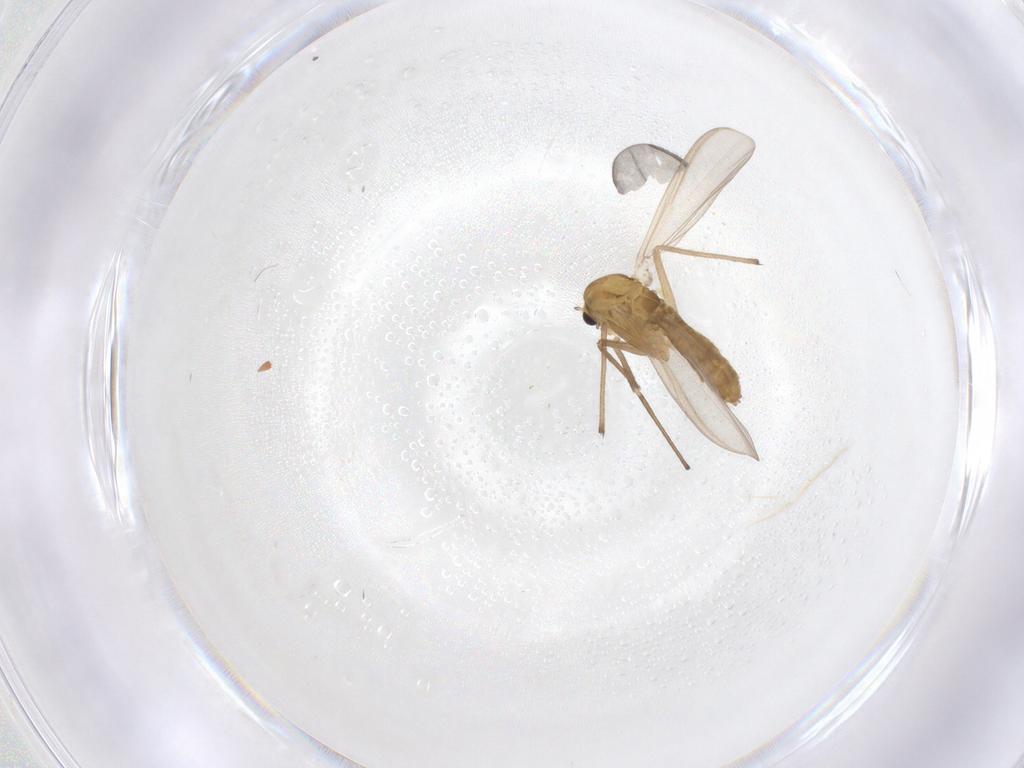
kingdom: Animalia
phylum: Arthropoda
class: Insecta
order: Diptera
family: Chironomidae
